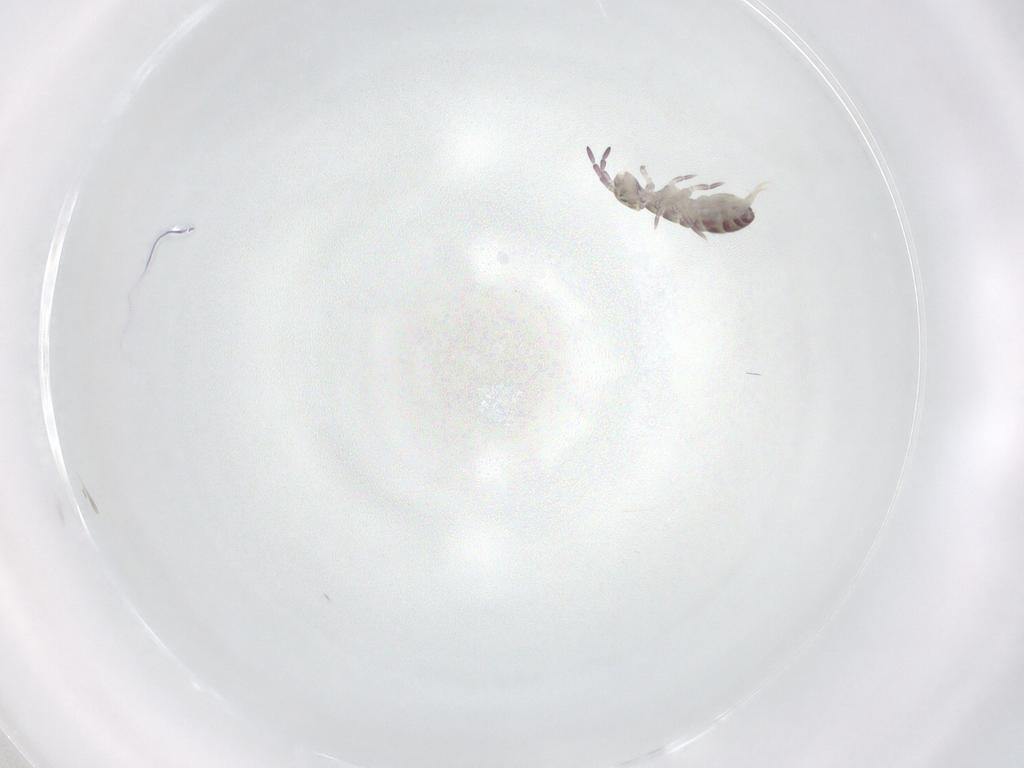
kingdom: Animalia
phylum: Arthropoda
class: Collembola
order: Entomobryomorpha
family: Isotomidae
